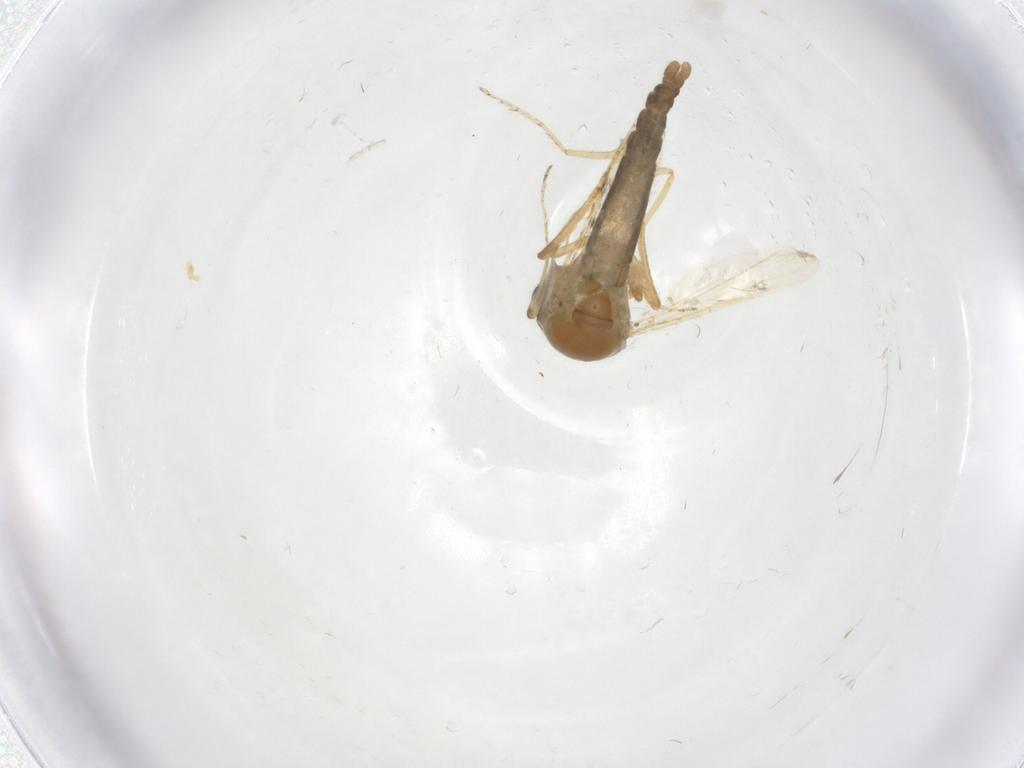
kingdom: Animalia
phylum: Arthropoda
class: Insecta
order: Diptera
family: Ceratopogonidae
